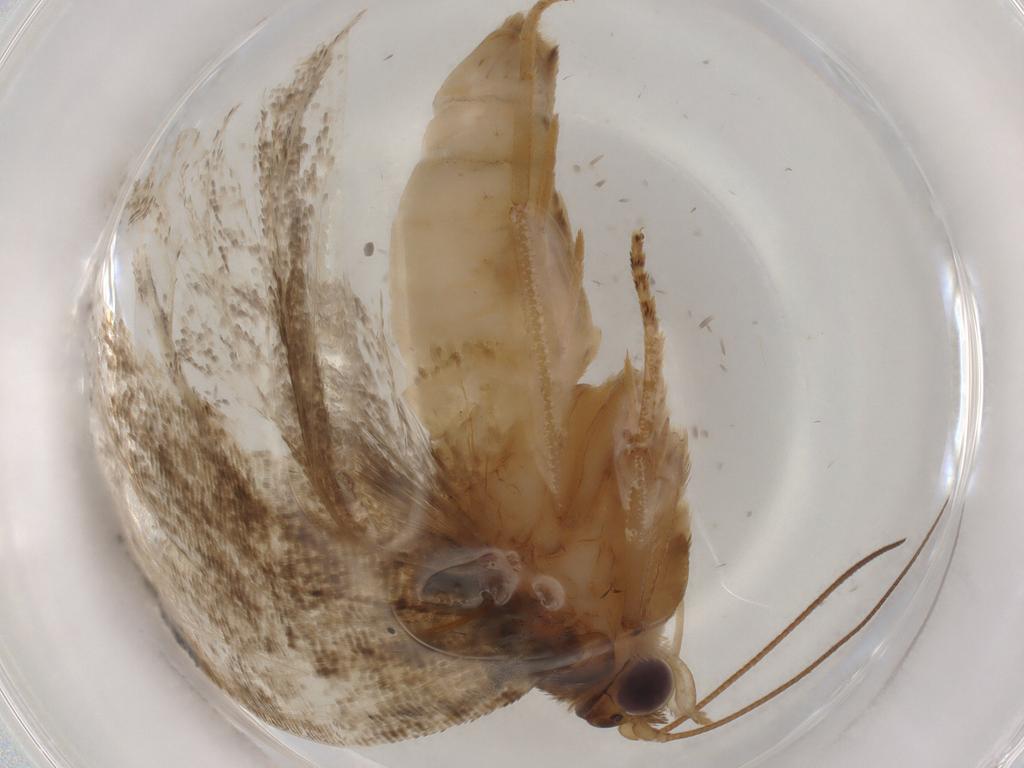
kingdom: Animalia
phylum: Arthropoda
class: Insecta
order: Lepidoptera
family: Tortricidae
